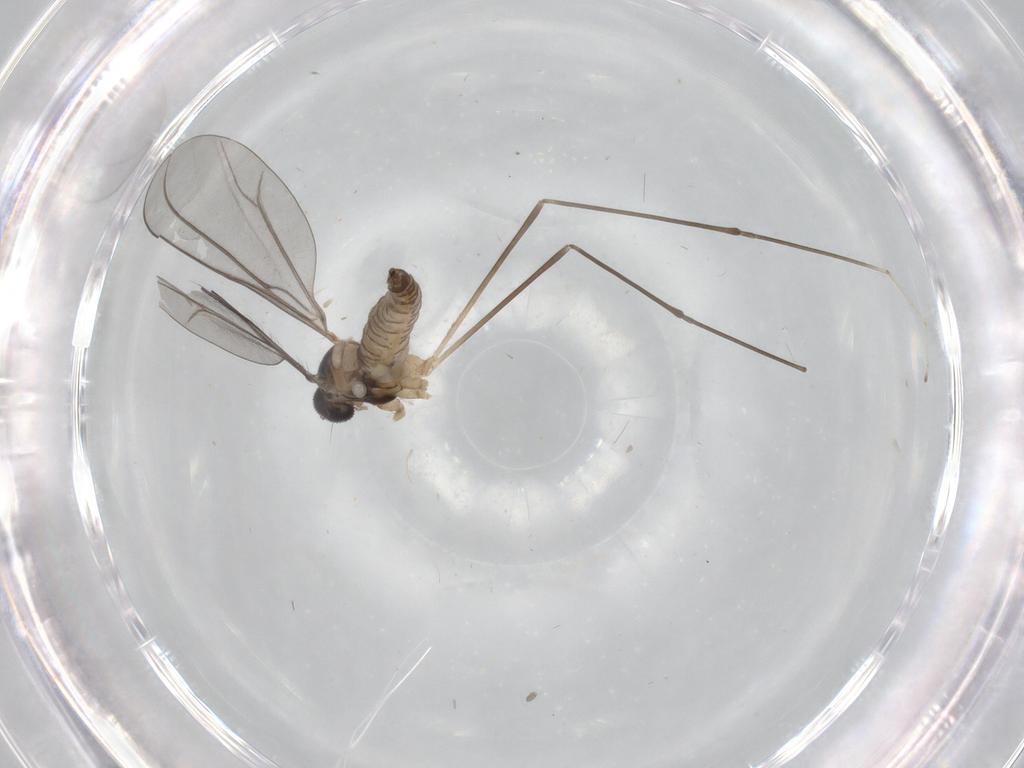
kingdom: Animalia
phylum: Arthropoda
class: Insecta
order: Diptera
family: Cecidomyiidae
